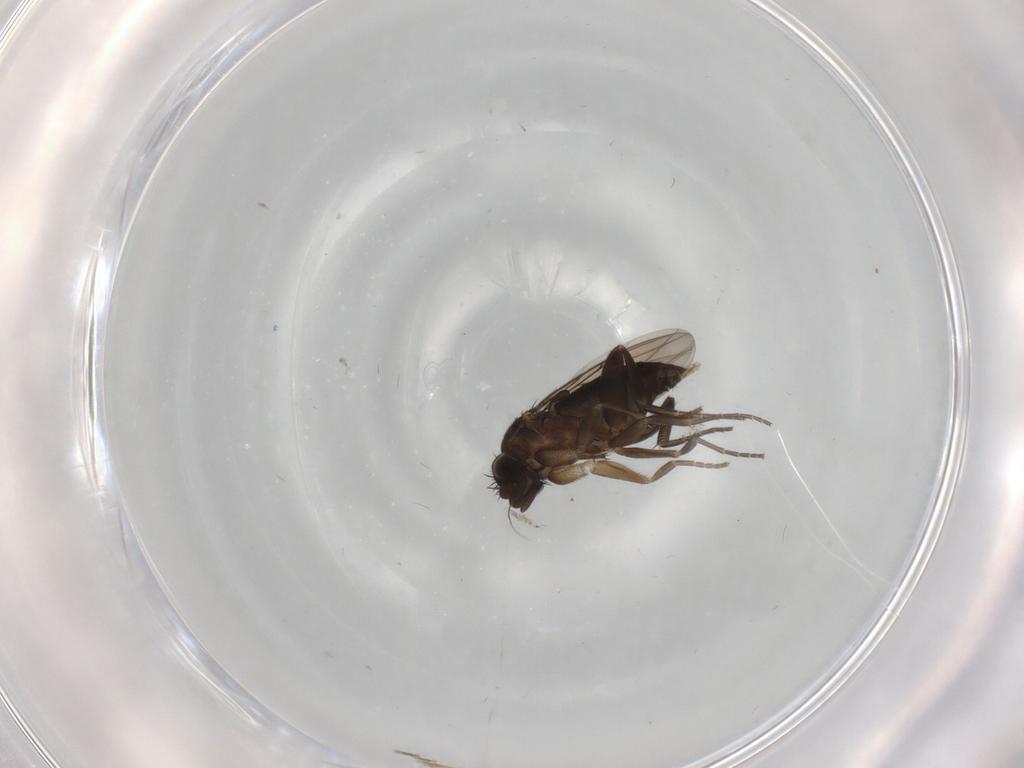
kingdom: Animalia
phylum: Arthropoda
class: Insecta
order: Diptera
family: Phoridae
